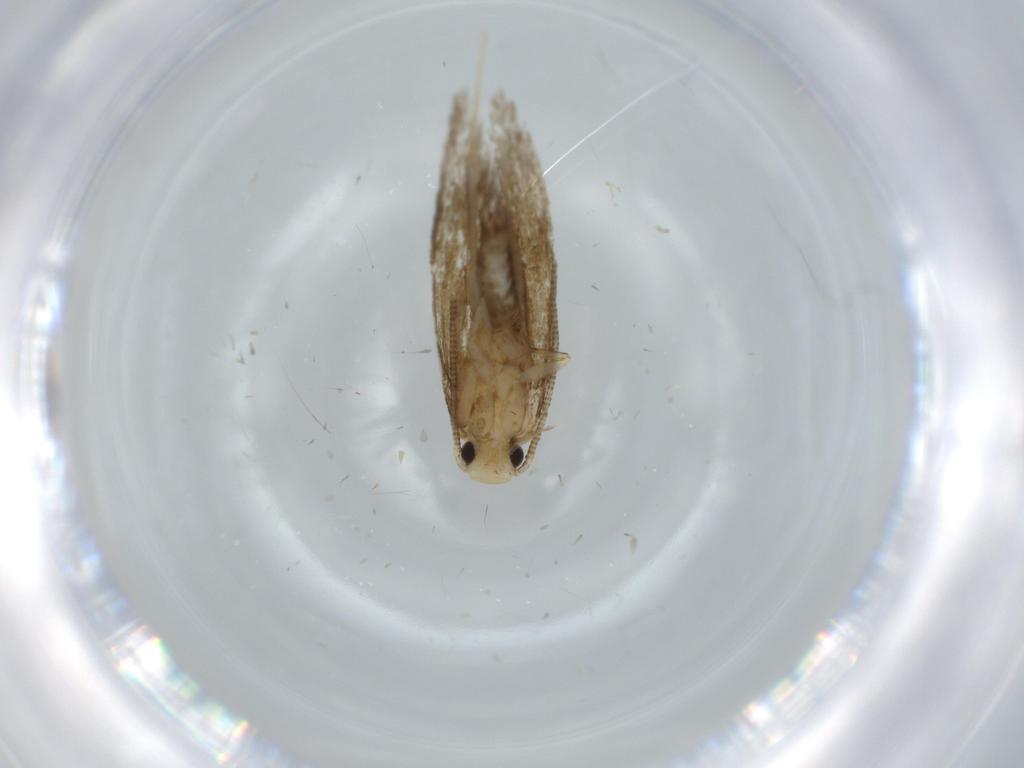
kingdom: Animalia
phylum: Arthropoda
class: Insecta
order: Lepidoptera
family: Tineidae
